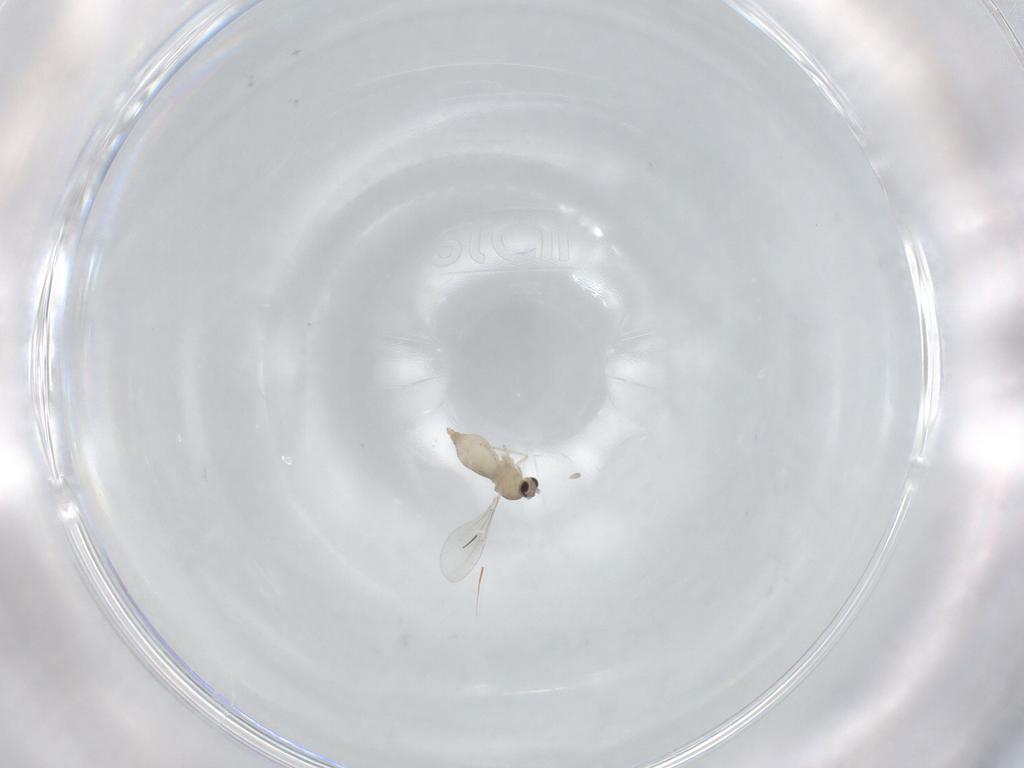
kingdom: Animalia
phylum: Arthropoda
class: Insecta
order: Diptera
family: Cecidomyiidae
